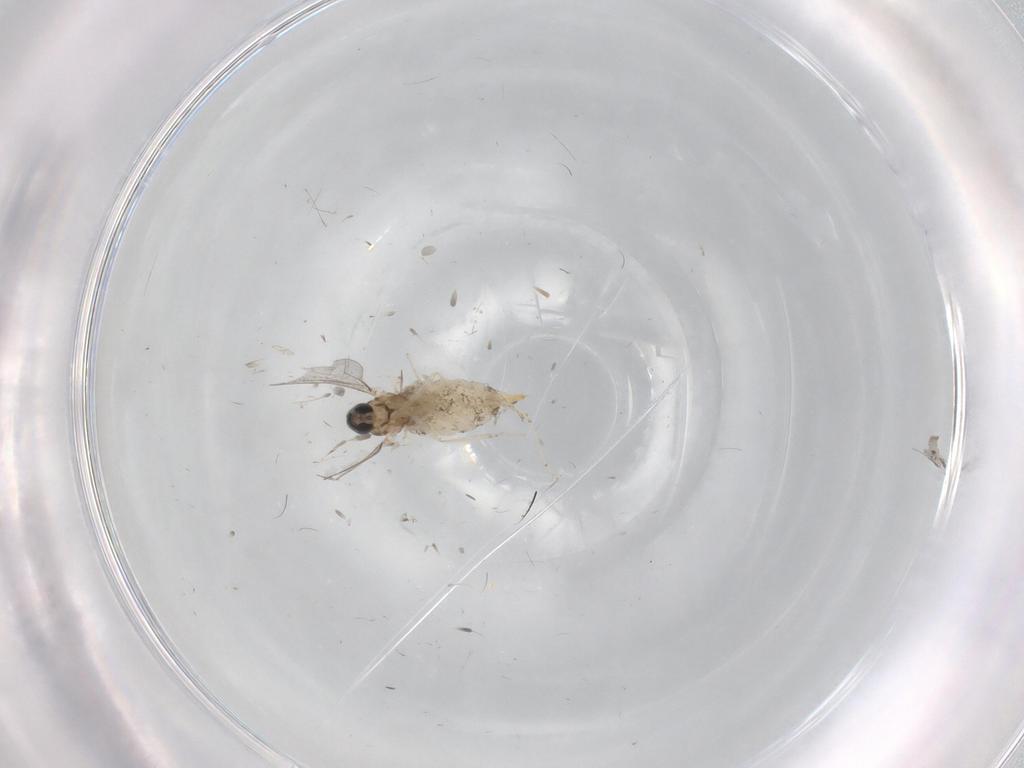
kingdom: Animalia
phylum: Arthropoda
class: Insecta
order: Diptera
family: Cecidomyiidae
